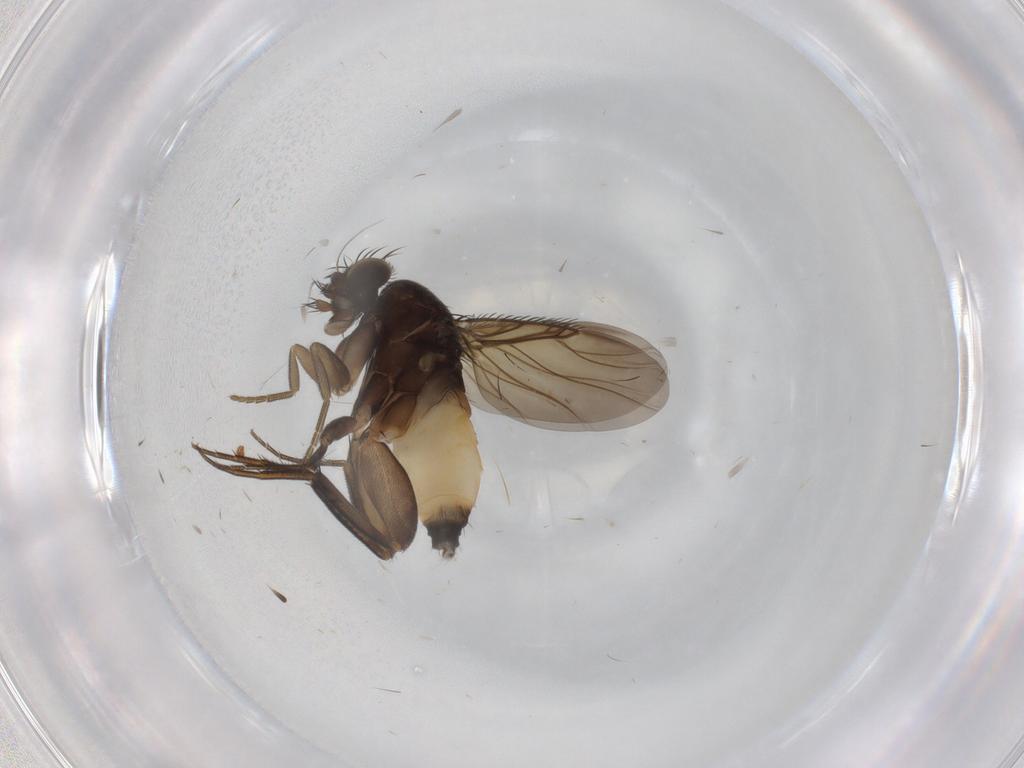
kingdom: Animalia
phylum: Arthropoda
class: Insecta
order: Diptera
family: Phoridae
